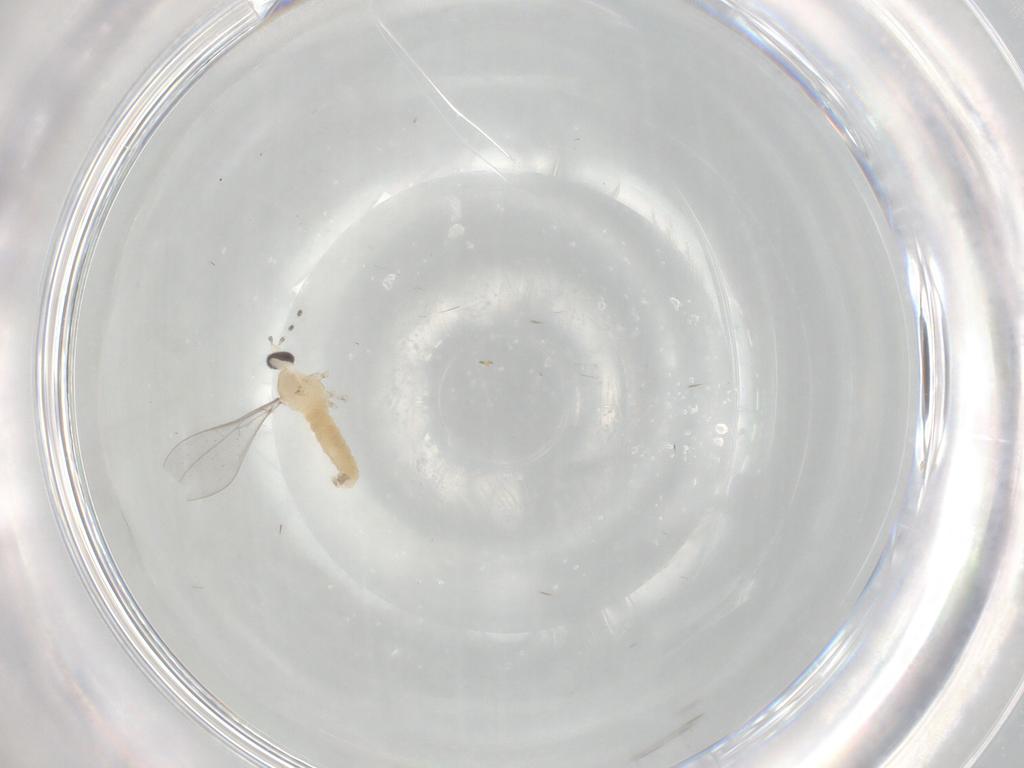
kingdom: Animalia
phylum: Arthropoda
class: Insecta
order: Diptera
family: Cecidomyiidae
